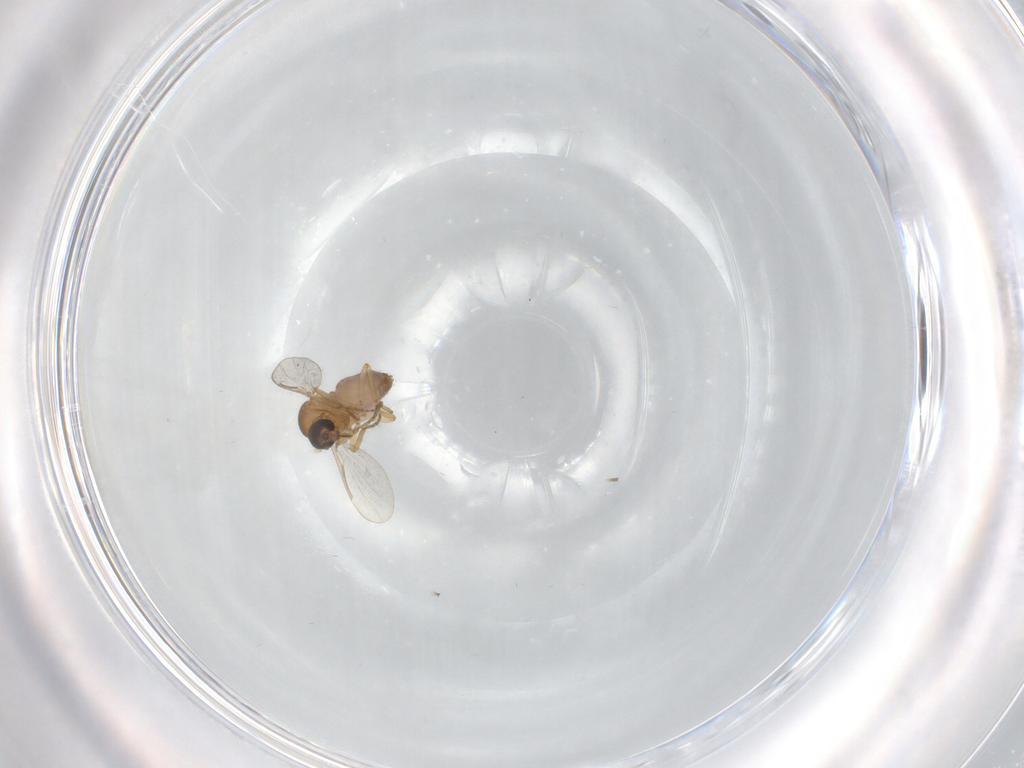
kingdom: Animalia
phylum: Arthropoda
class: Insecta
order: Diptera
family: Ceratopogonidae
